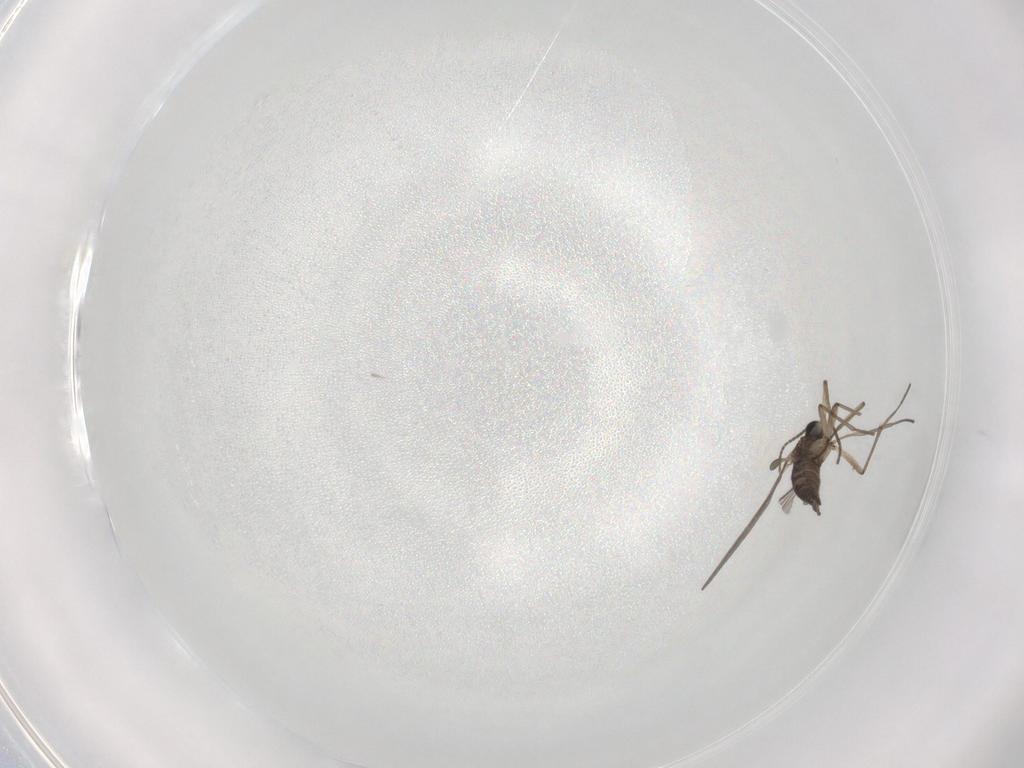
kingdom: Animalia
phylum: Arthropoda
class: Insecta
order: Diptera
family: Sciaridae
